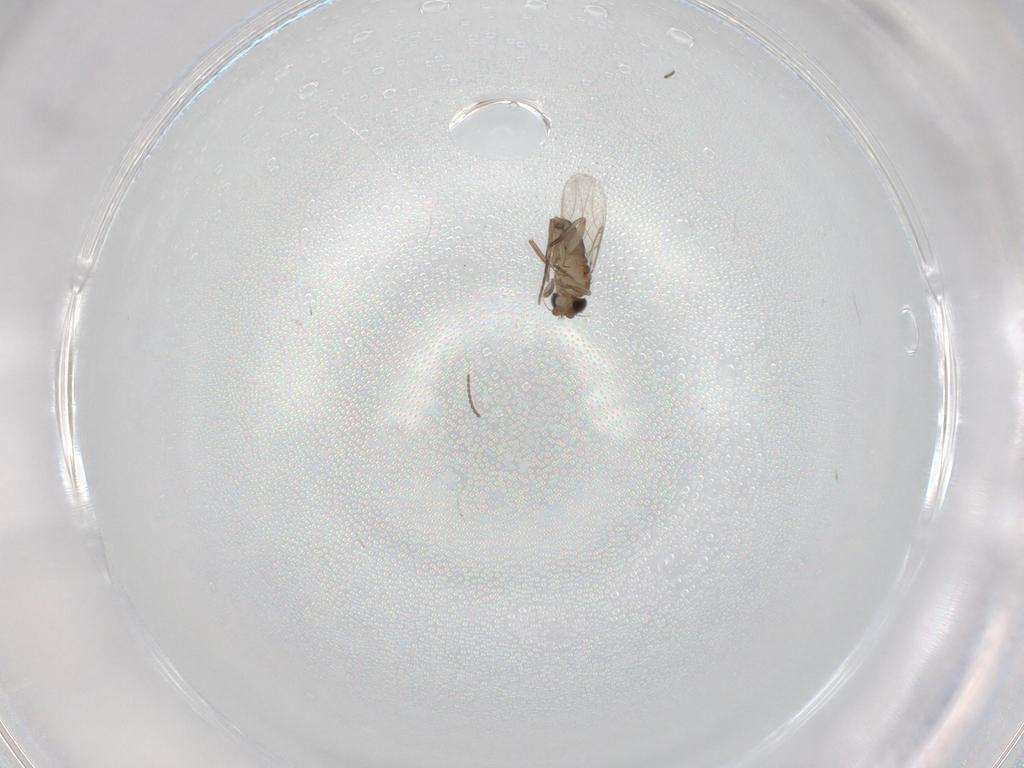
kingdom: Animalia
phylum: Arthropoda
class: Insecta
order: Diptera
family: Phoridae
